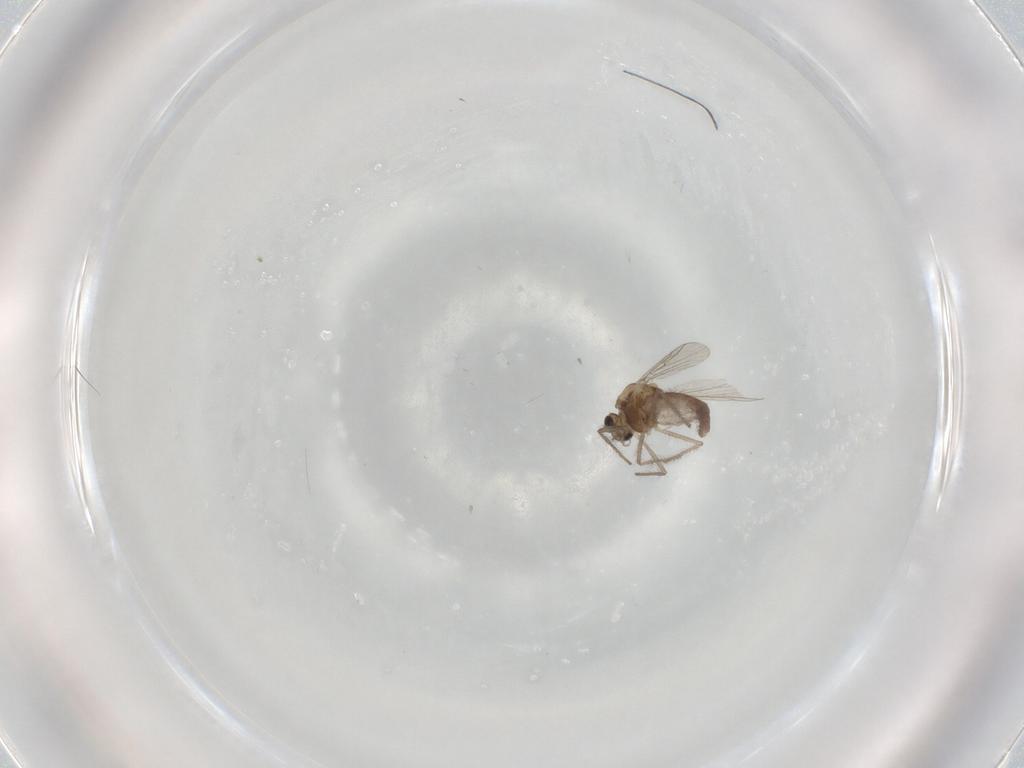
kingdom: Animalia
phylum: Arthropoda
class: Insecta
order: Diptera
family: Chironomidae
